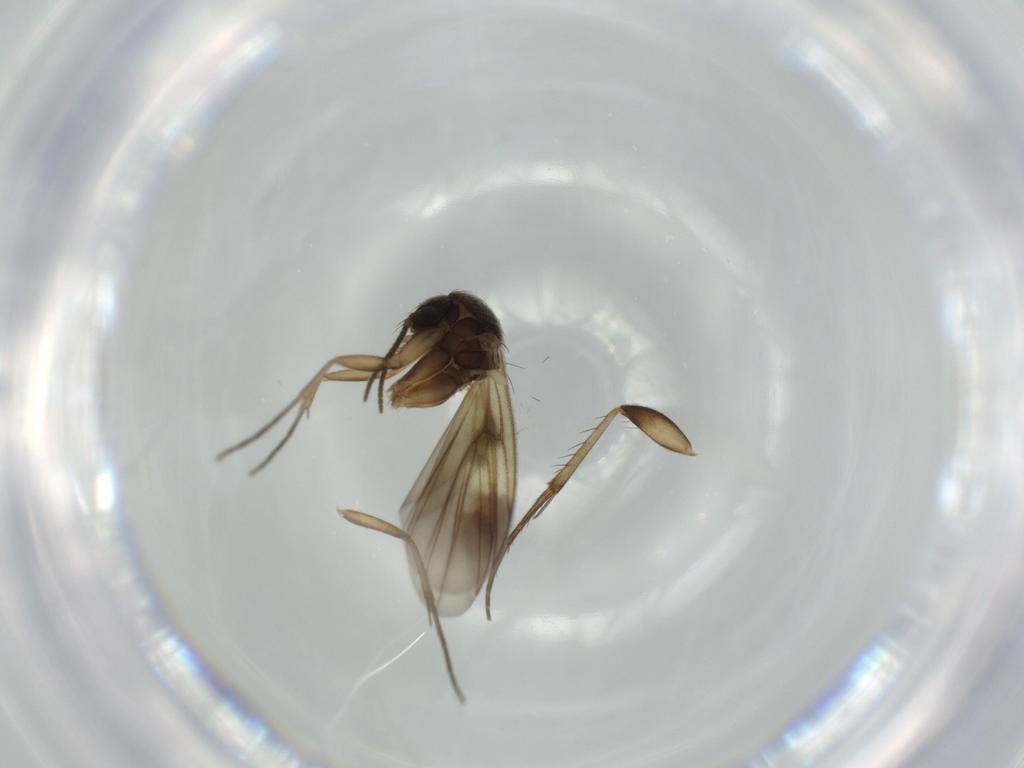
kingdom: Animalia
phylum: Arthropoda
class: Insecta
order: Diptera
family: Mycetophilidae
